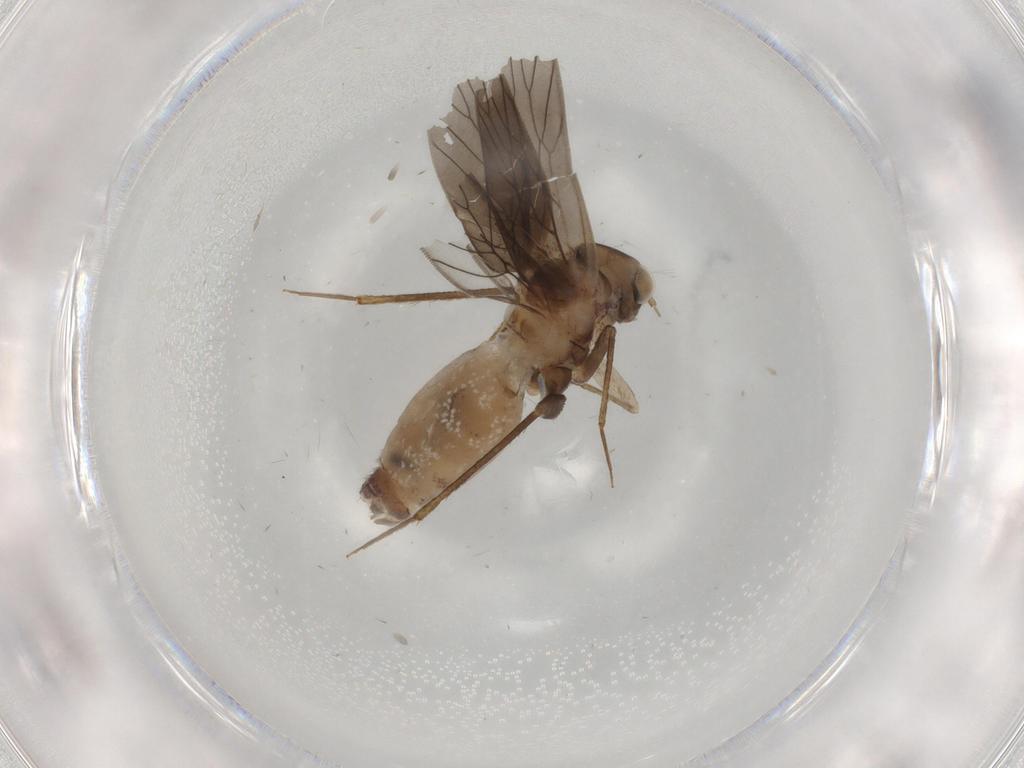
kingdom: Animalia
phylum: Arthropoda
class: Insecta
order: Psocodea
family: Lepidopsocidae
